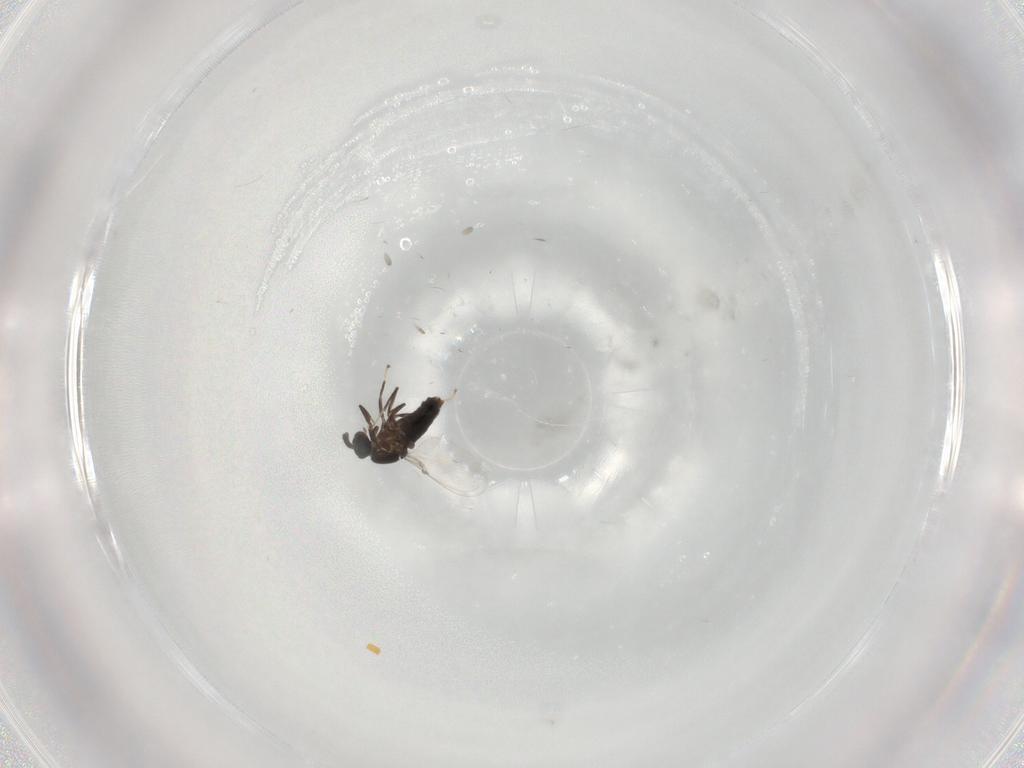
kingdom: Animalia
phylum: Arthropoda
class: Insecta
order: Diptera
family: Scatopsidae
